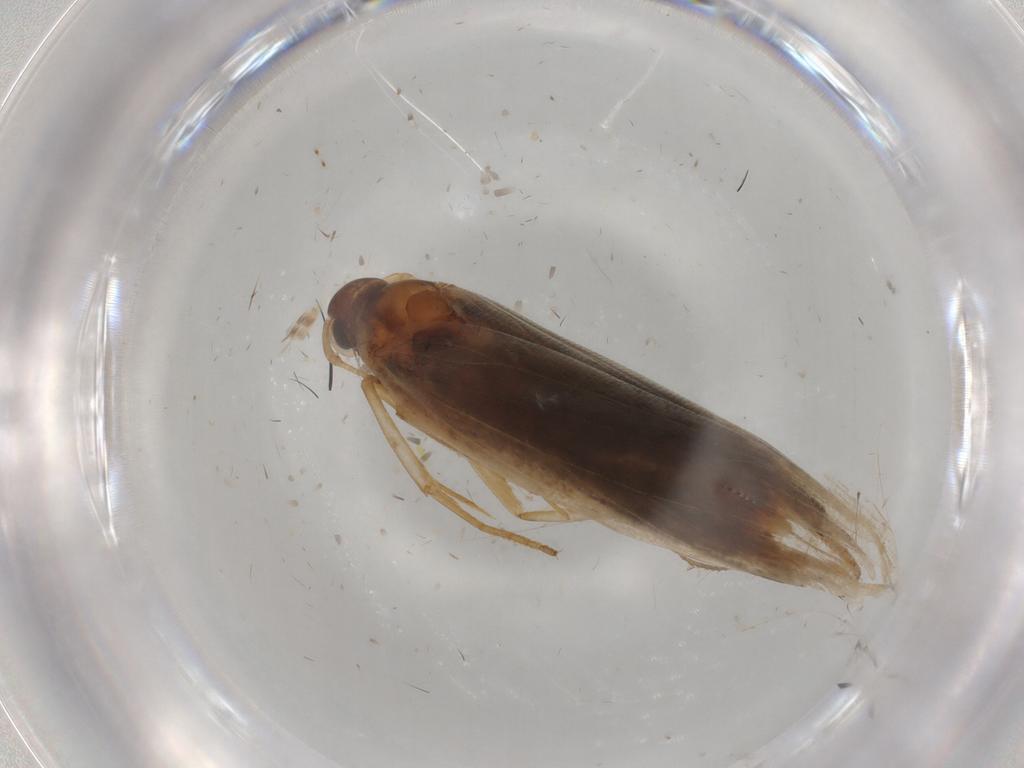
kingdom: Animalia
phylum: Arthropoda
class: Insecta
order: Lepidoptera
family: Gelechiidae
